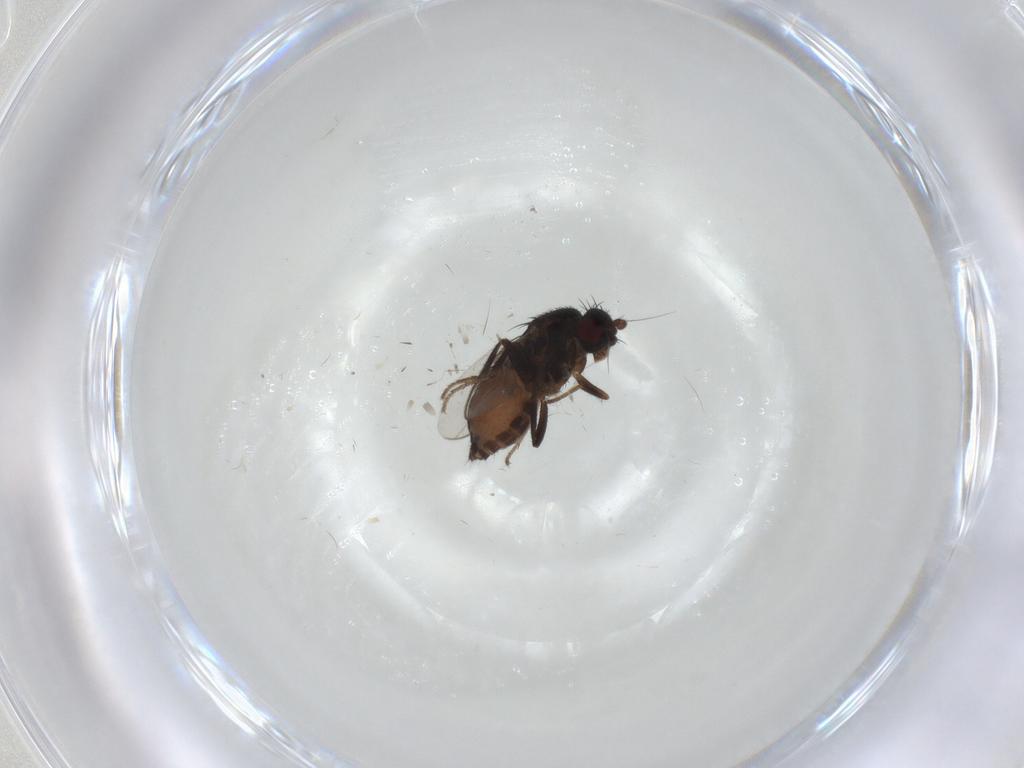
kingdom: Animalia
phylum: Arthropoda
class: Insecta
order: Diptera
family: Sphaeroceridae
